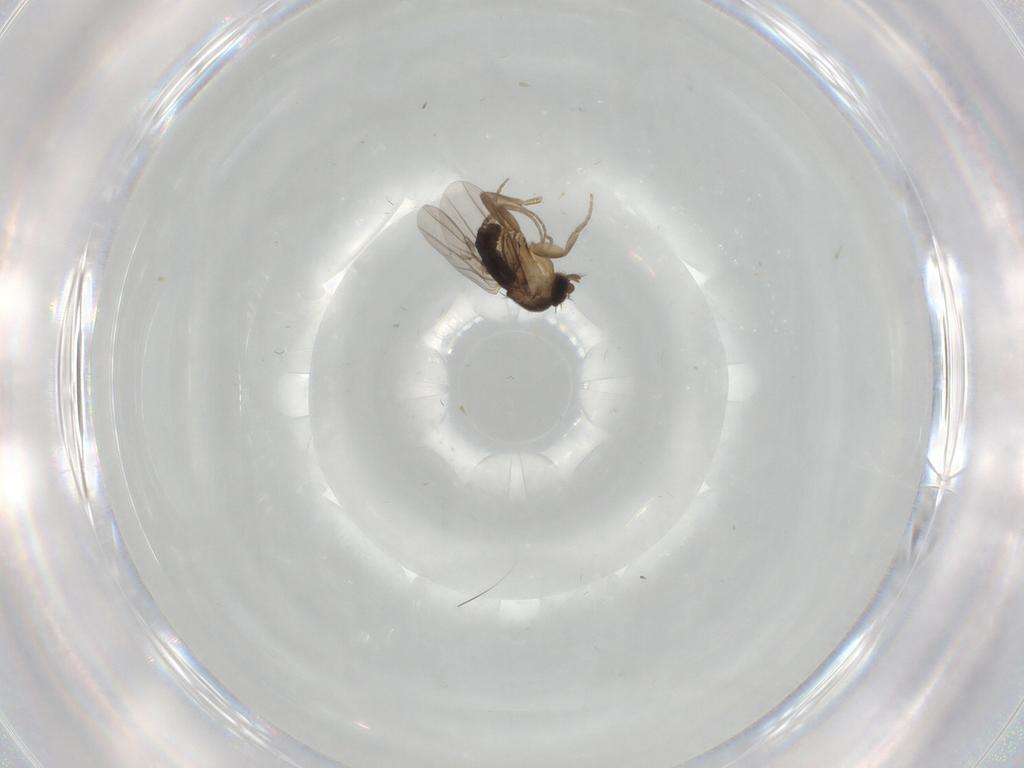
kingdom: Animalia
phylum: Arthropoda
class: Insecta
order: Diptera
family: Phoridae
